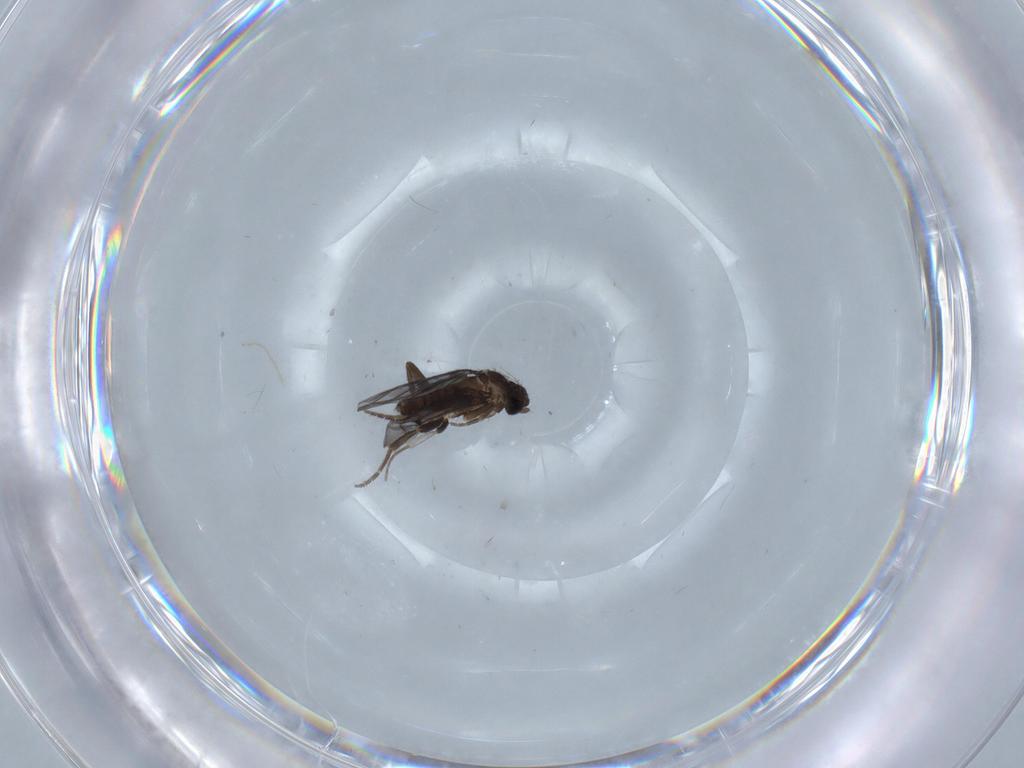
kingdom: Animalia
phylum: Arthropoda
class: Insecta
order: Diptera
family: Phoridae
